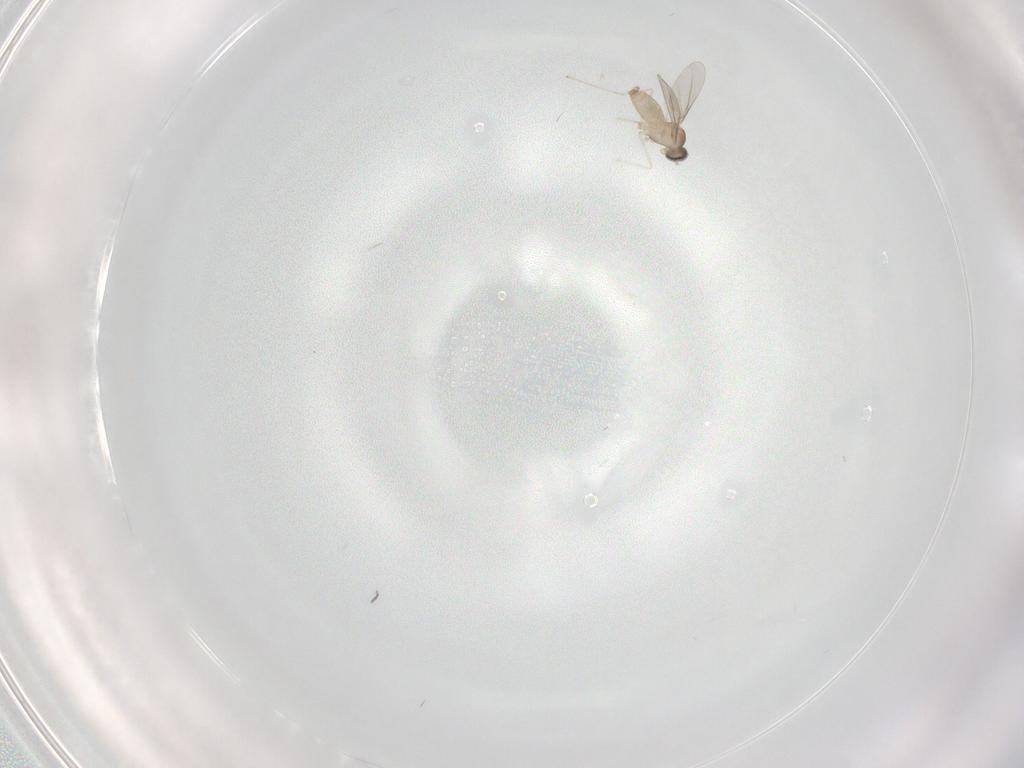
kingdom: Animalia
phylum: Arthropoda
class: Insecta
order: Diptera
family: Cecidomyiidae
